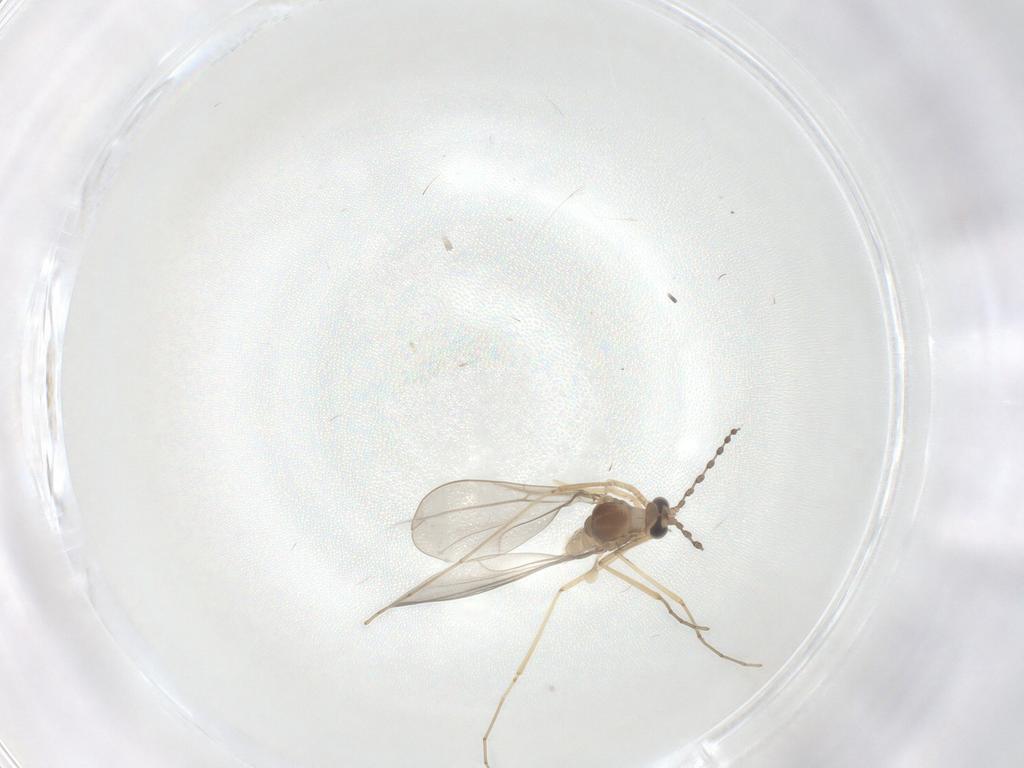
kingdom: Animalia
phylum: Arthropoda
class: Insecta
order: Diptera
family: Cecidomyiidae
